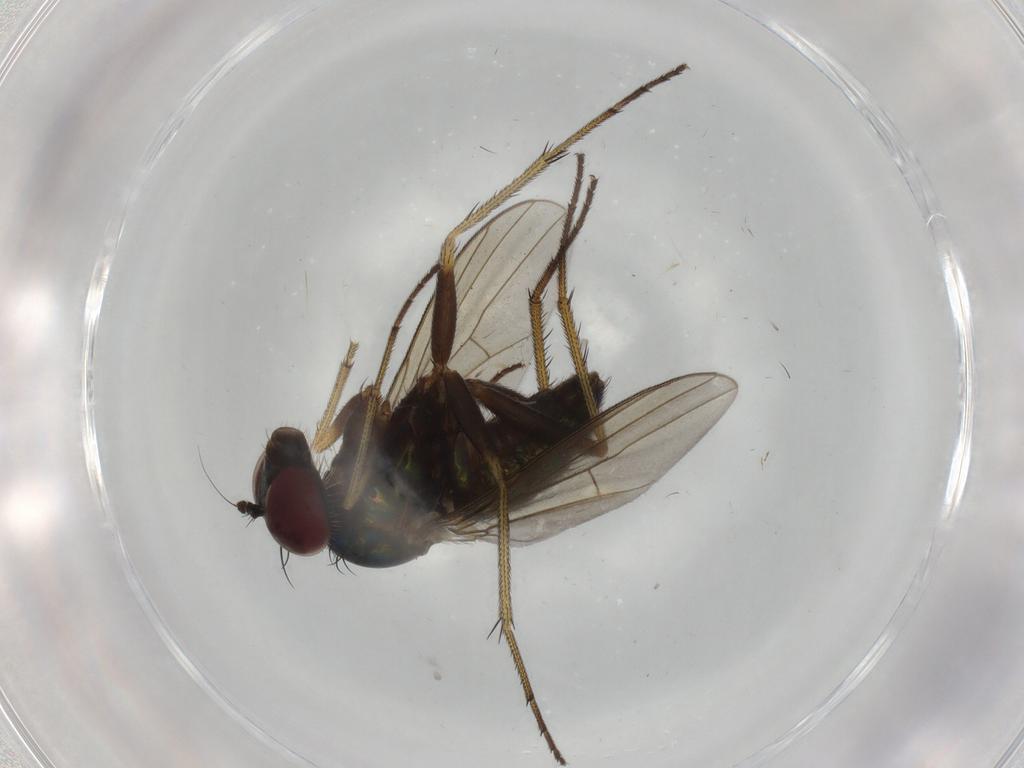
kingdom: Animalia
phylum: Arthropoda
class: Insecta
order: Diptera
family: Dolichopodidae
